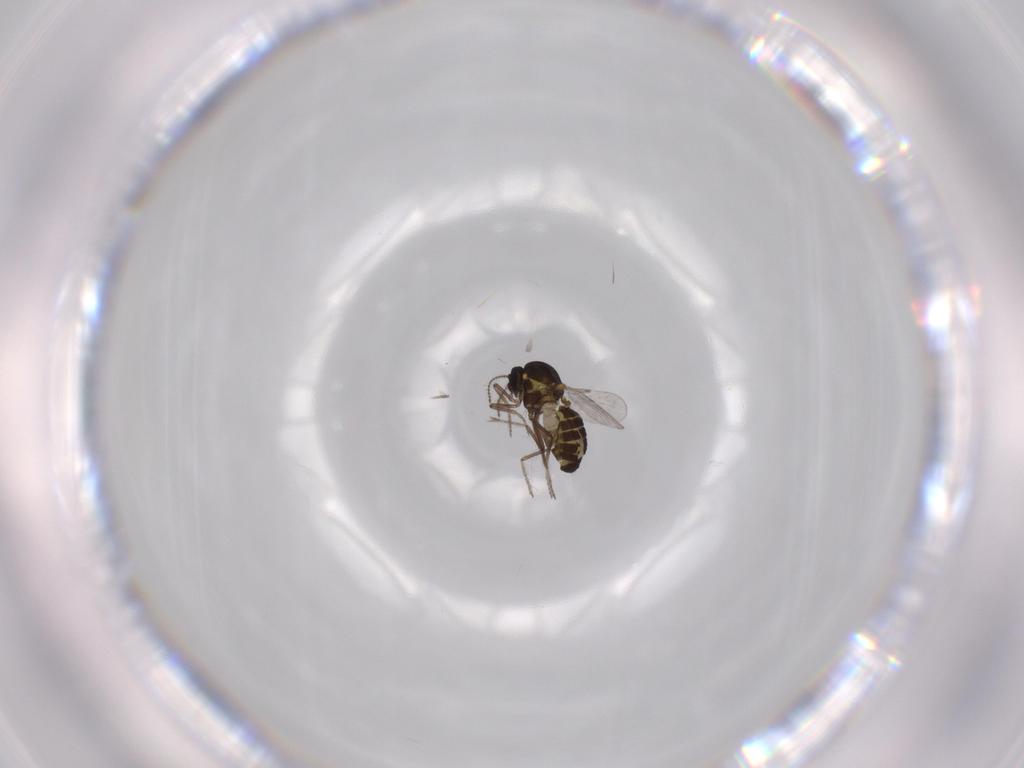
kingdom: Animalia
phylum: Arthropoda
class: Insecta
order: Diptera
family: Ceratopogonidae
